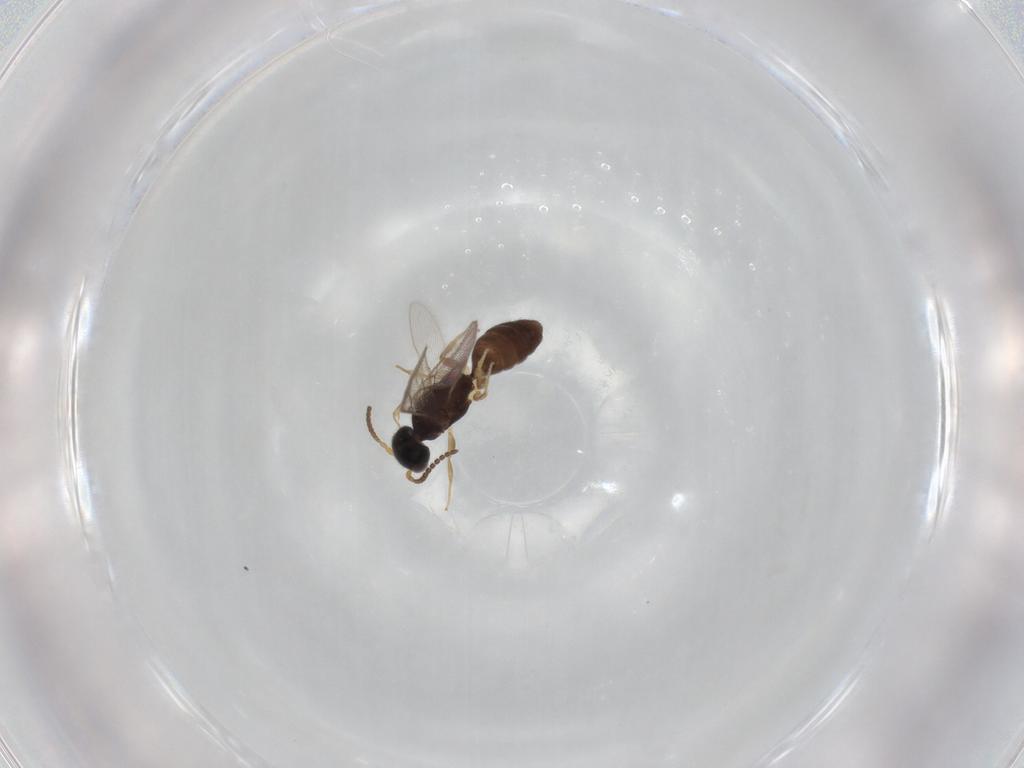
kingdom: Animalia
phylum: Arthropoda
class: Insecta
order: Hymenoptera
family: Bethylidae
